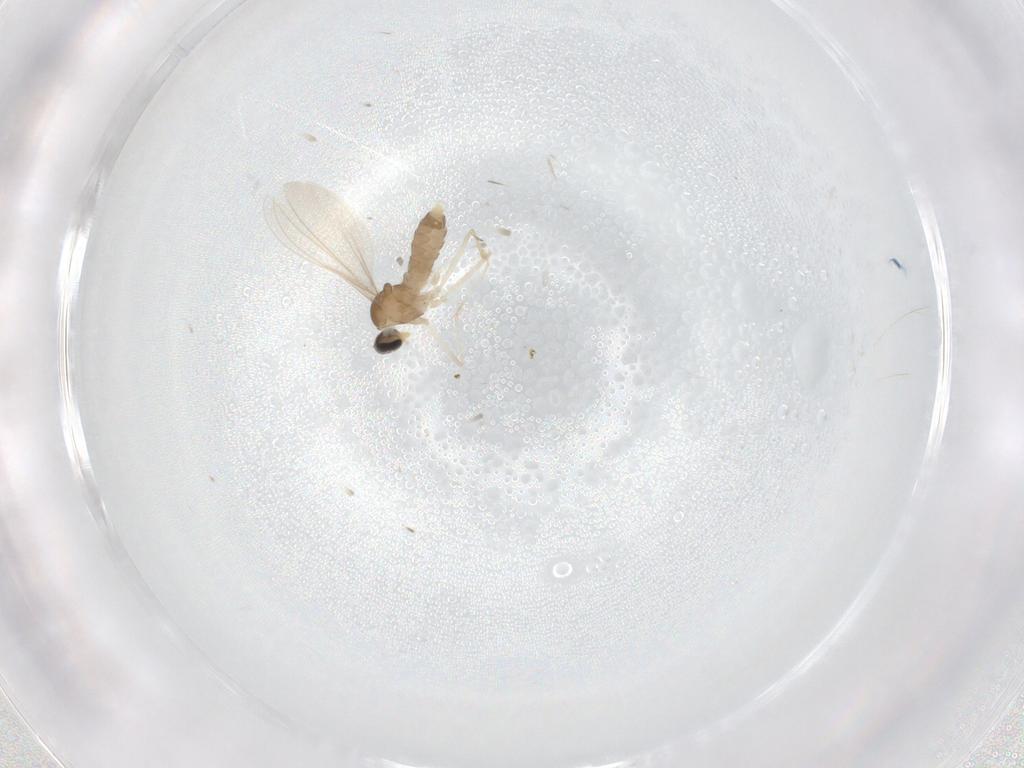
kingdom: Animalia
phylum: Arthropoda
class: Insecta
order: Diptera
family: Cecidomyiidae
